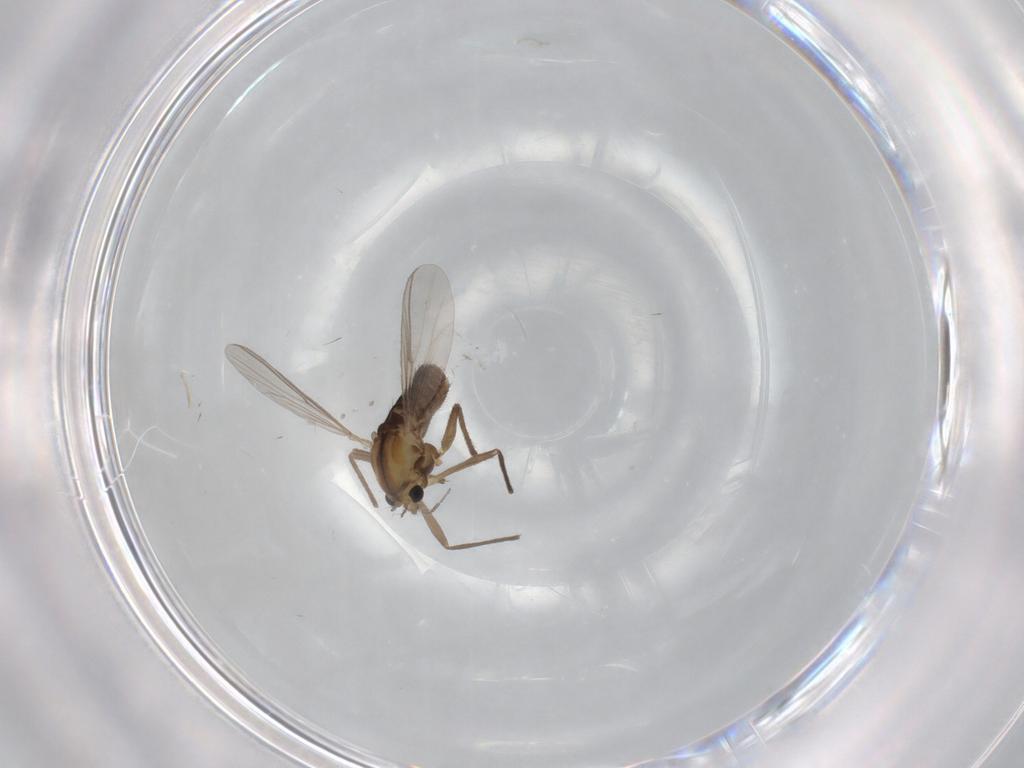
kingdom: Animalia
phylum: Arthropoda
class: Insecta
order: Diptera
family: Chironomidae
